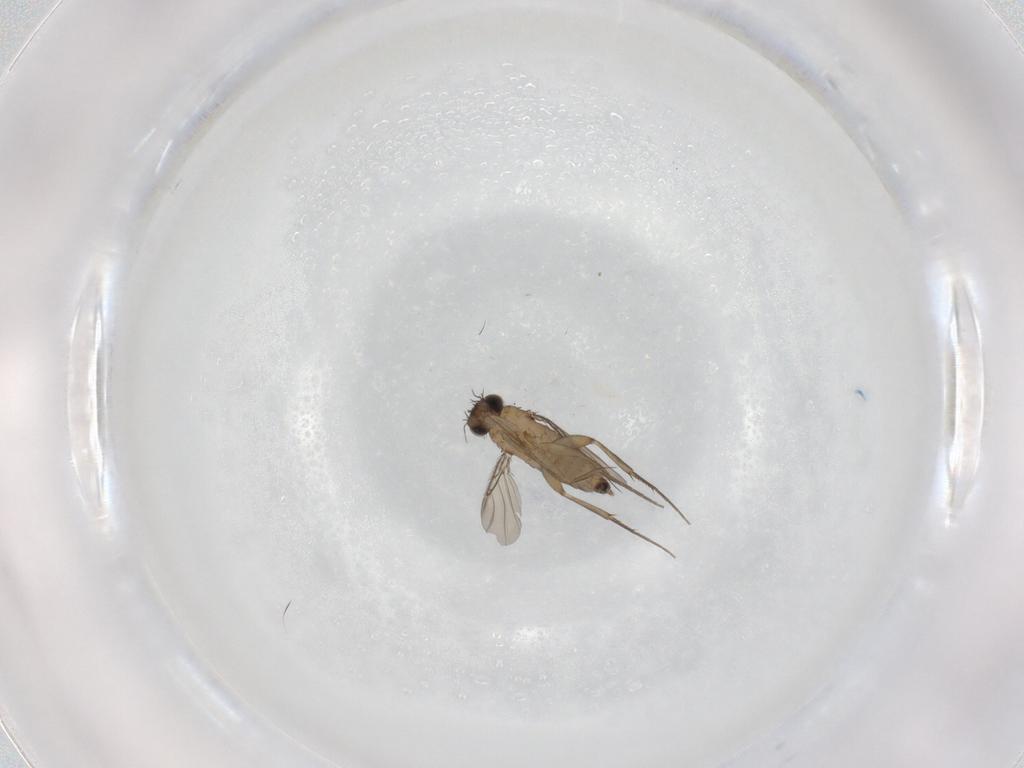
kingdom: Animalia
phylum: Arthropoda
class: Insecta
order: Diptera
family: Phoridae
